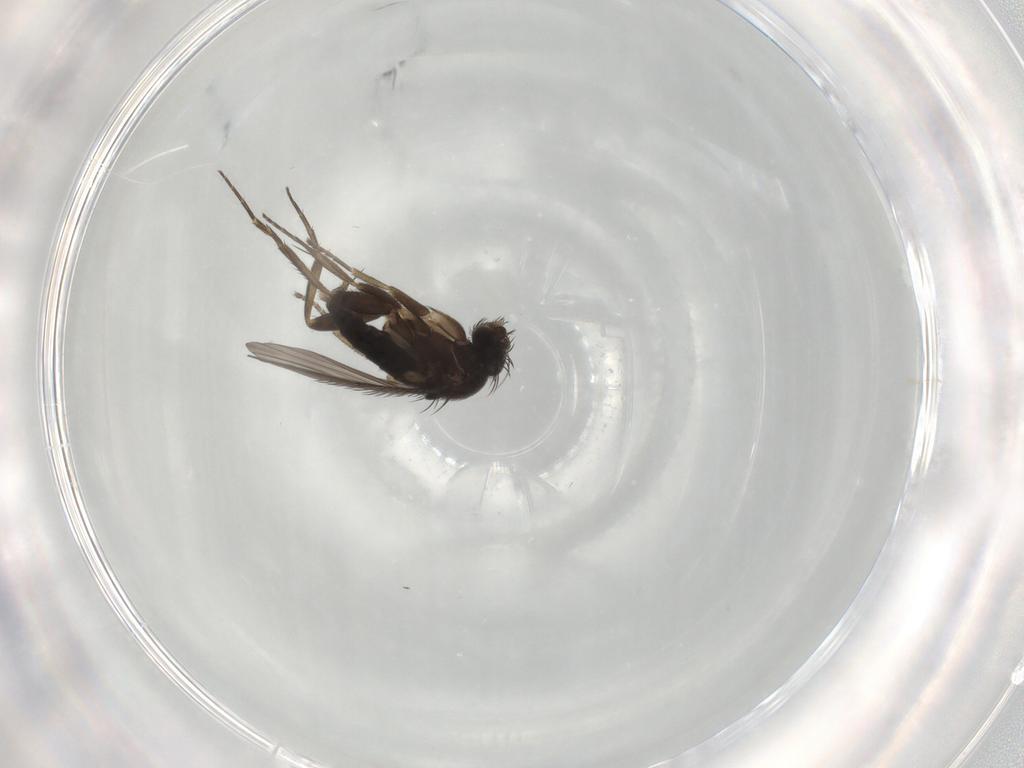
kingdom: Animalia
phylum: Arthropoda
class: Insecta
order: Diptera
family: Phoridae
